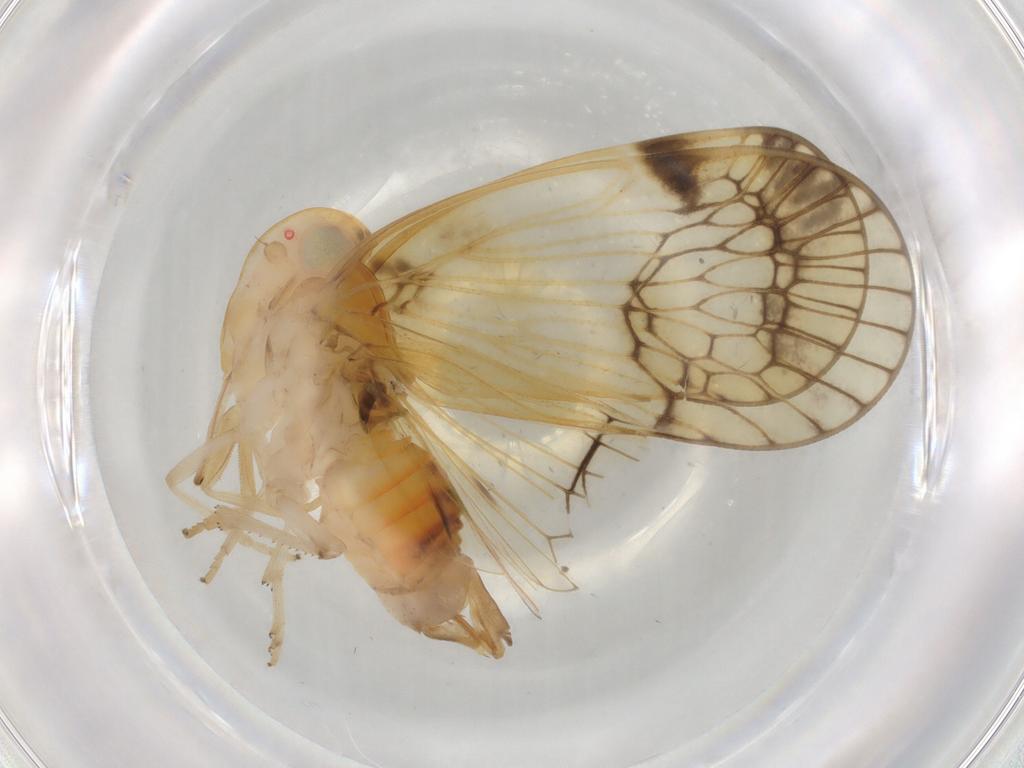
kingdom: Animalia
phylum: Arthropoda
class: Insecta
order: Hemiptera
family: Cixiidae
